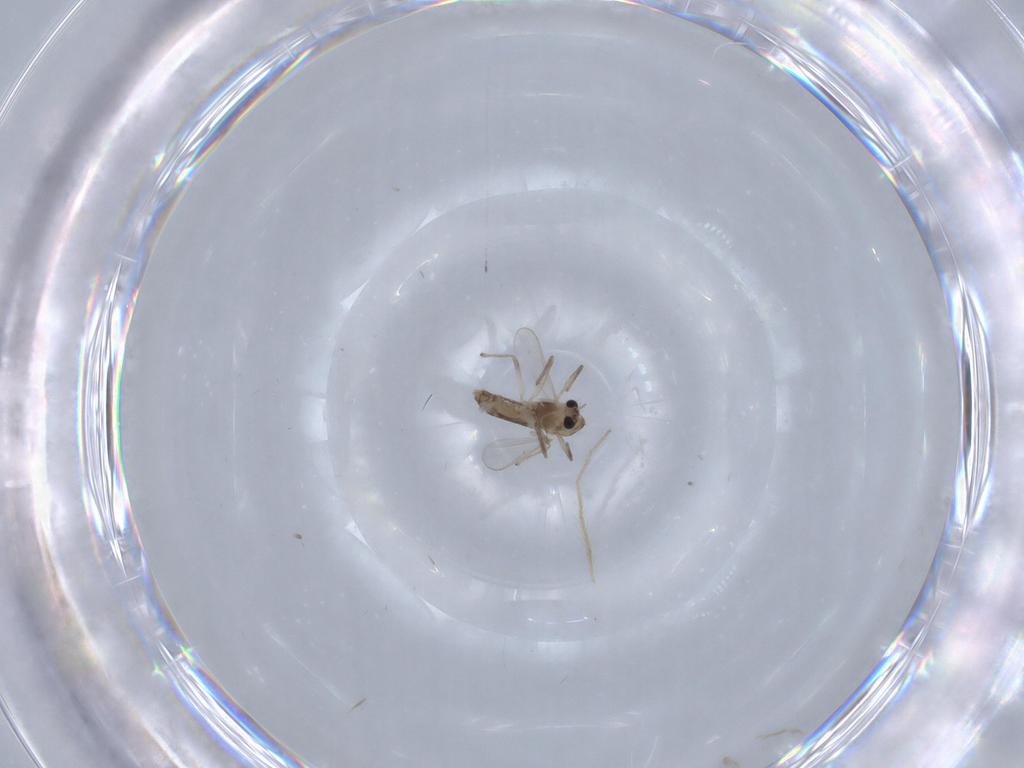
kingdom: Animalia
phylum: Arthropoda
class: Insecta
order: Diptera
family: Chironomidae
